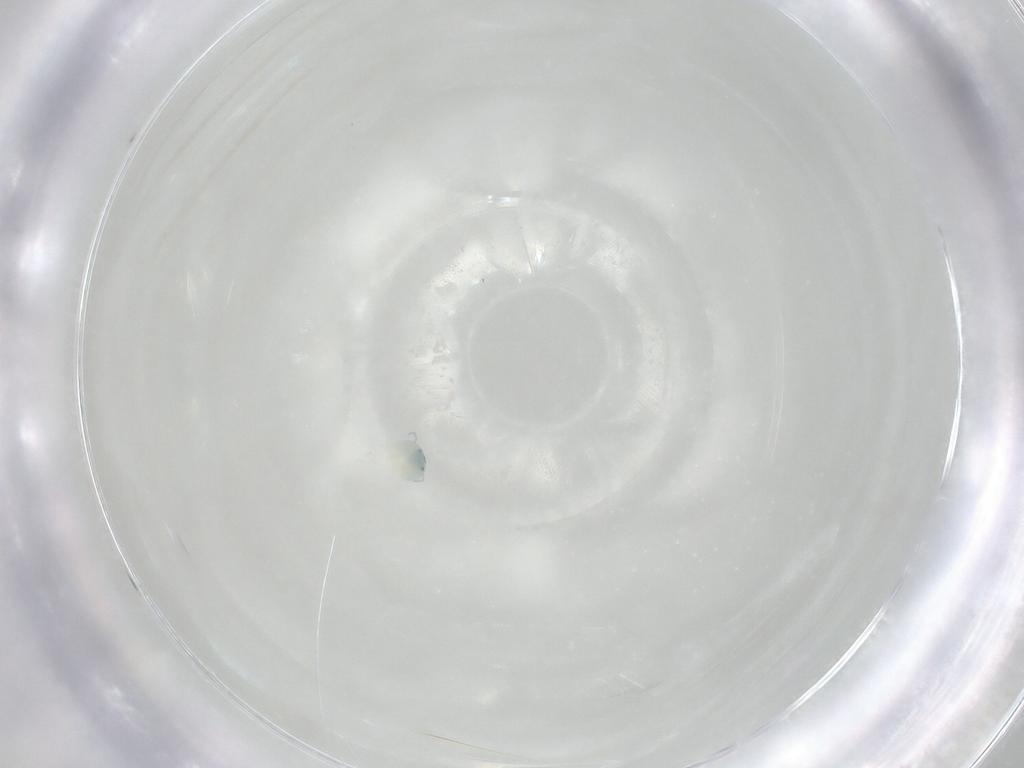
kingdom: Animalia
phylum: Arthropoda
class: Arachnida
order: Trombidiformes
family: Arrenuridae
